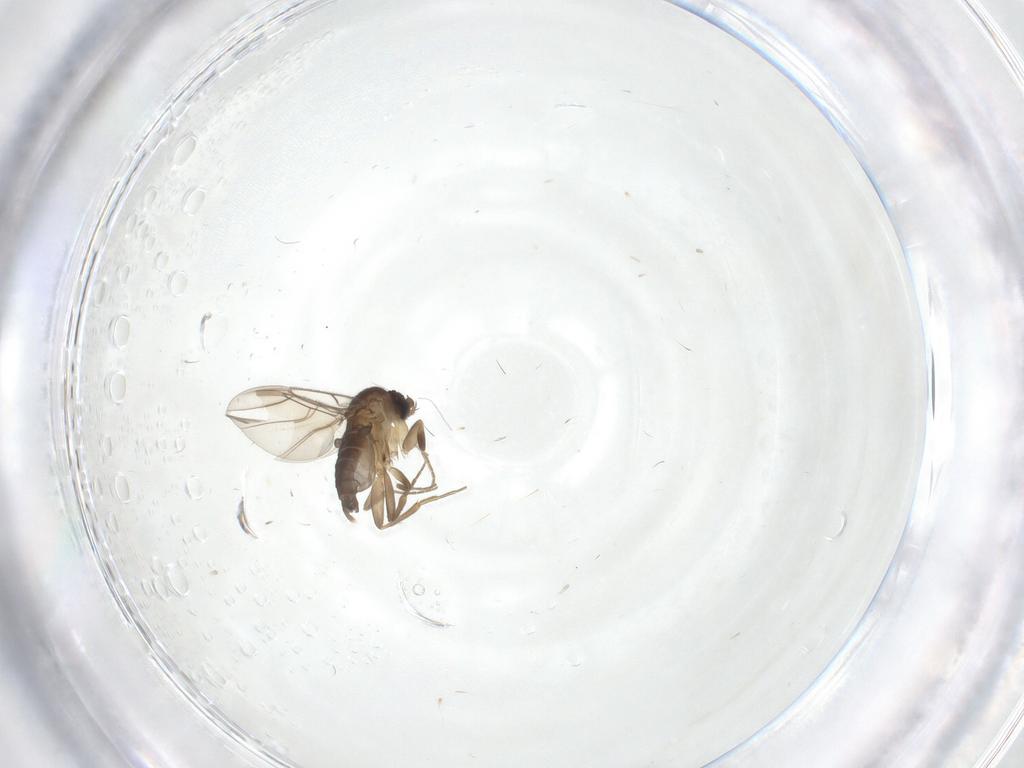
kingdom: Animalia
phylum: Arthropoda
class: Insecta
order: Diptera
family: Phoridae
